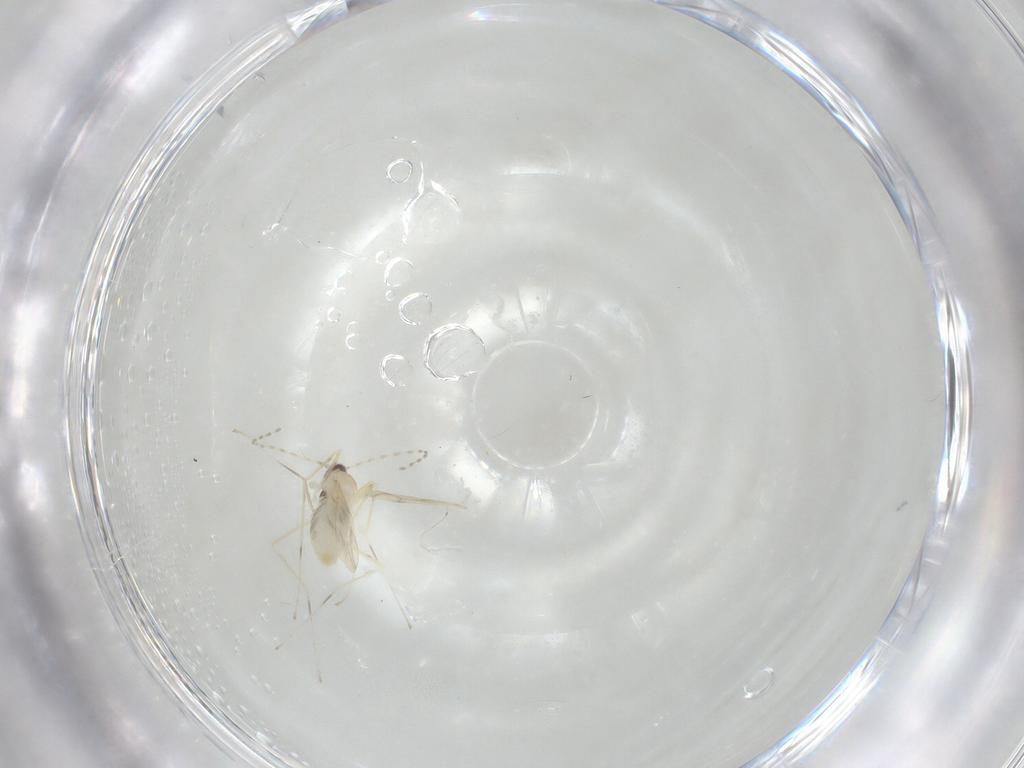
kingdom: Animalia
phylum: Arthropoda
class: Insecta
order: Diptera
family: Cecidomyiidae
